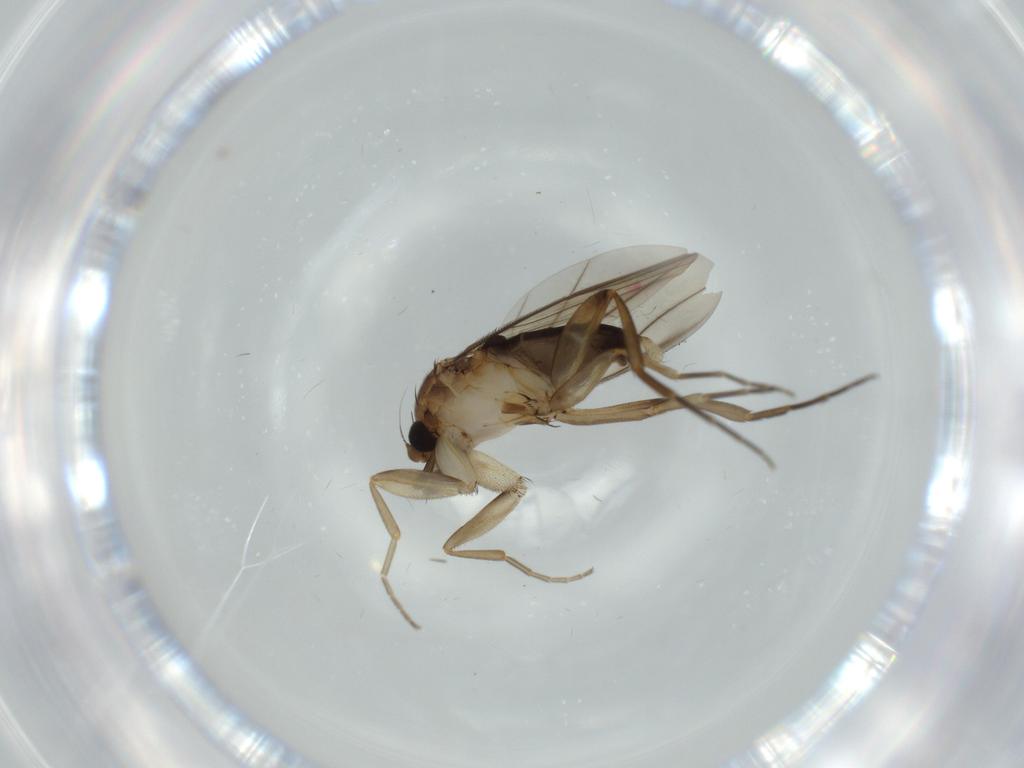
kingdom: Animalia
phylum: Arthropoda
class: Insecta
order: Diptera
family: Phoridae
